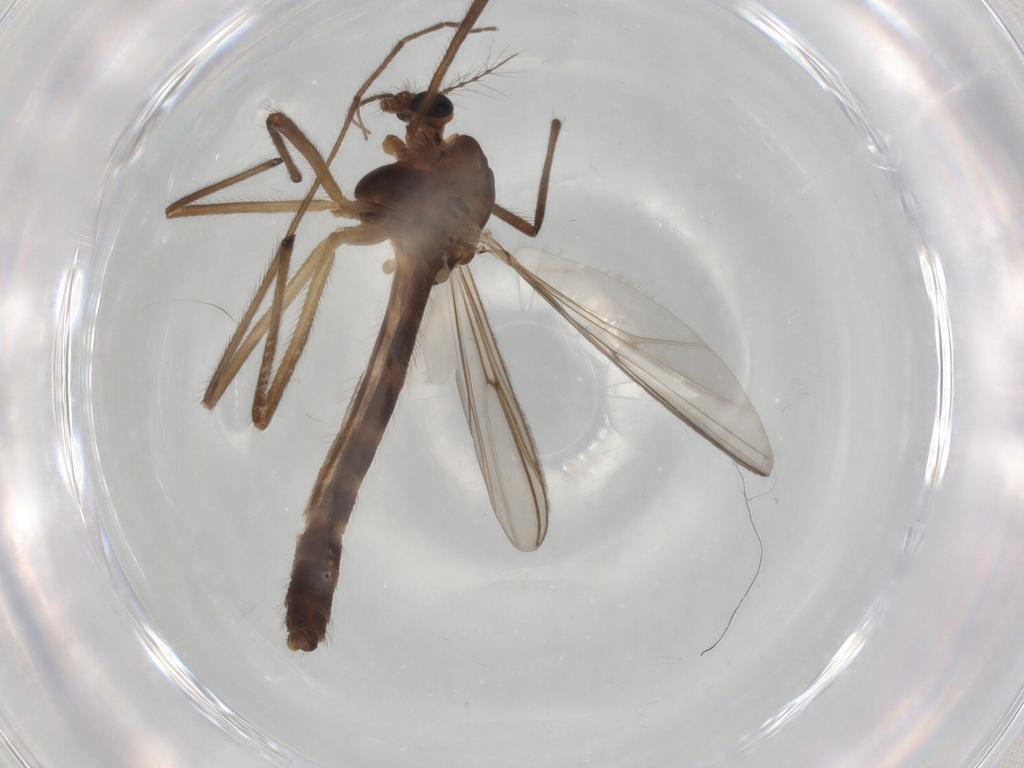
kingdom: Animalia
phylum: Arthropoda
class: Insecta
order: Diptera
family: Chironomidae
